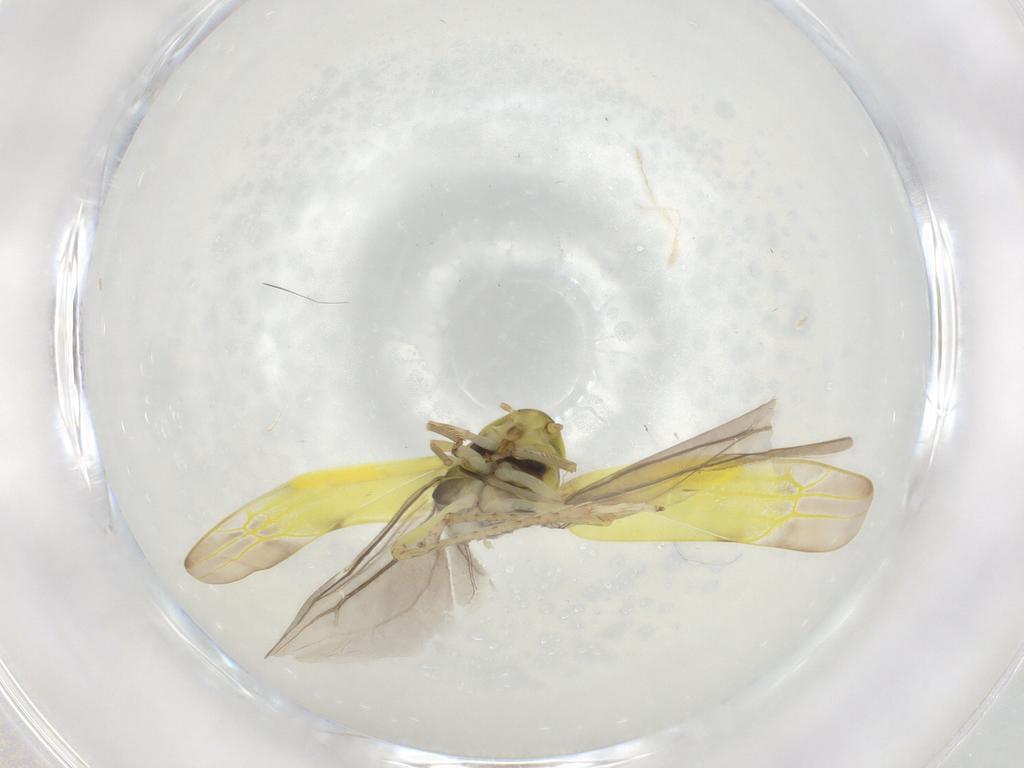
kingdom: Animalia
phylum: Arthropoda
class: Insecta
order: Hemiptera
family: Cicadellidae
